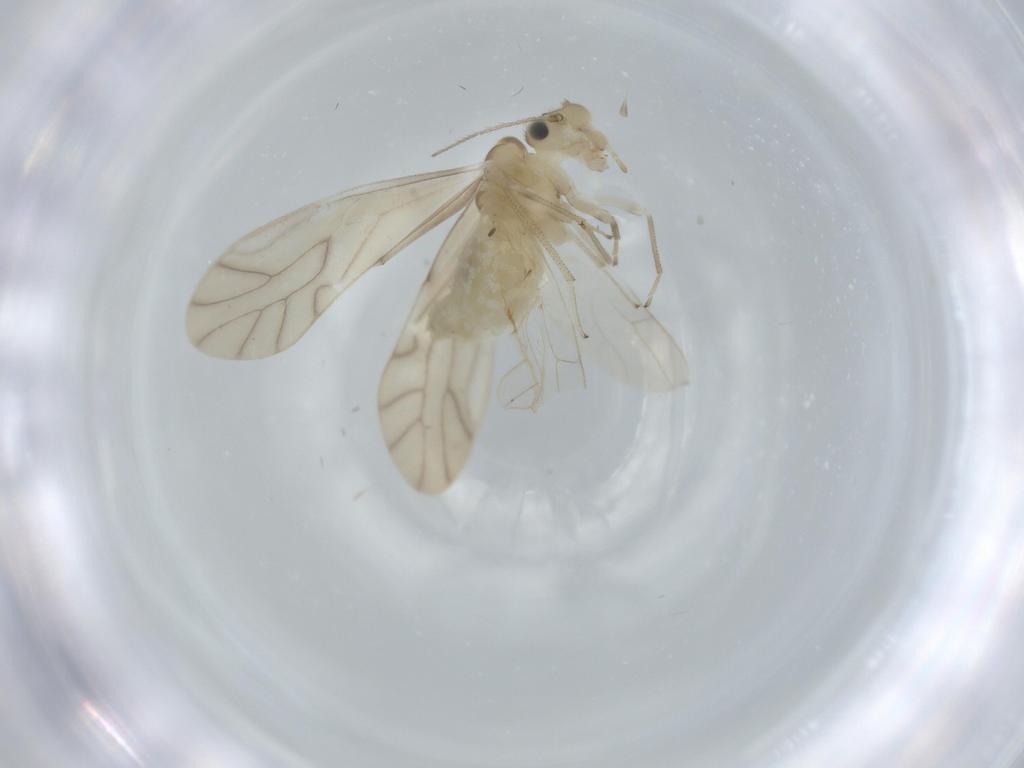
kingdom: Animalia
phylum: Arthropoda
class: Insecta
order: Psocodea
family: Caeciliusidae
